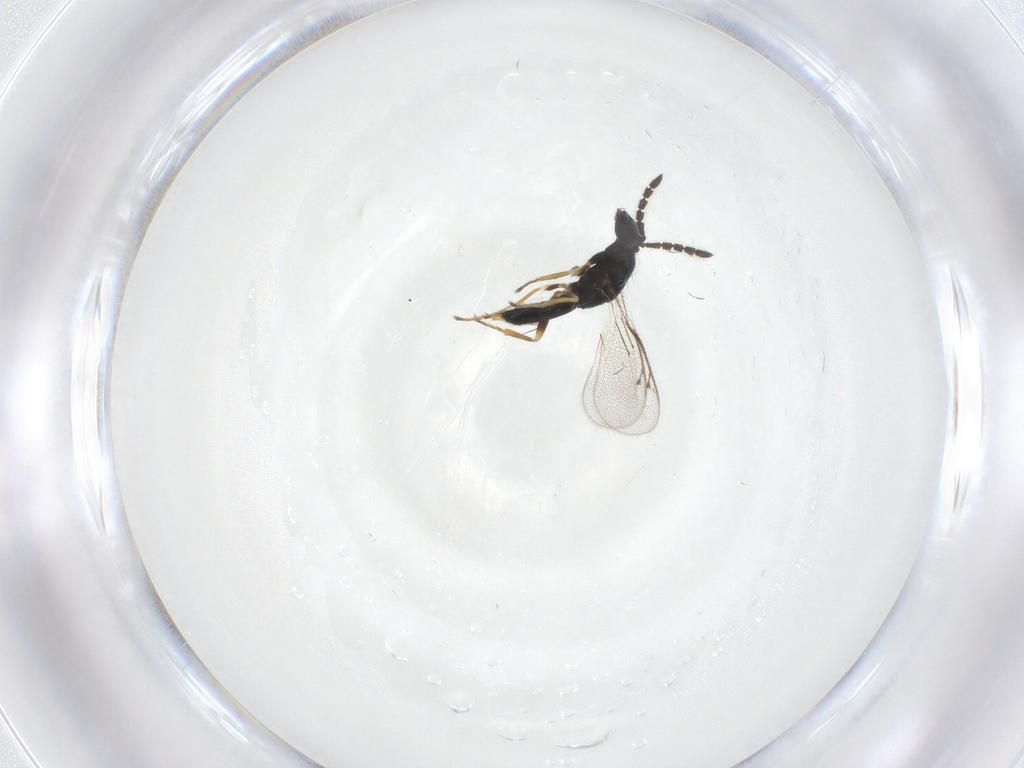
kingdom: Animalia
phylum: Arthropoda
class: Insecta
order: Hymenoptera
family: Eulophidae
